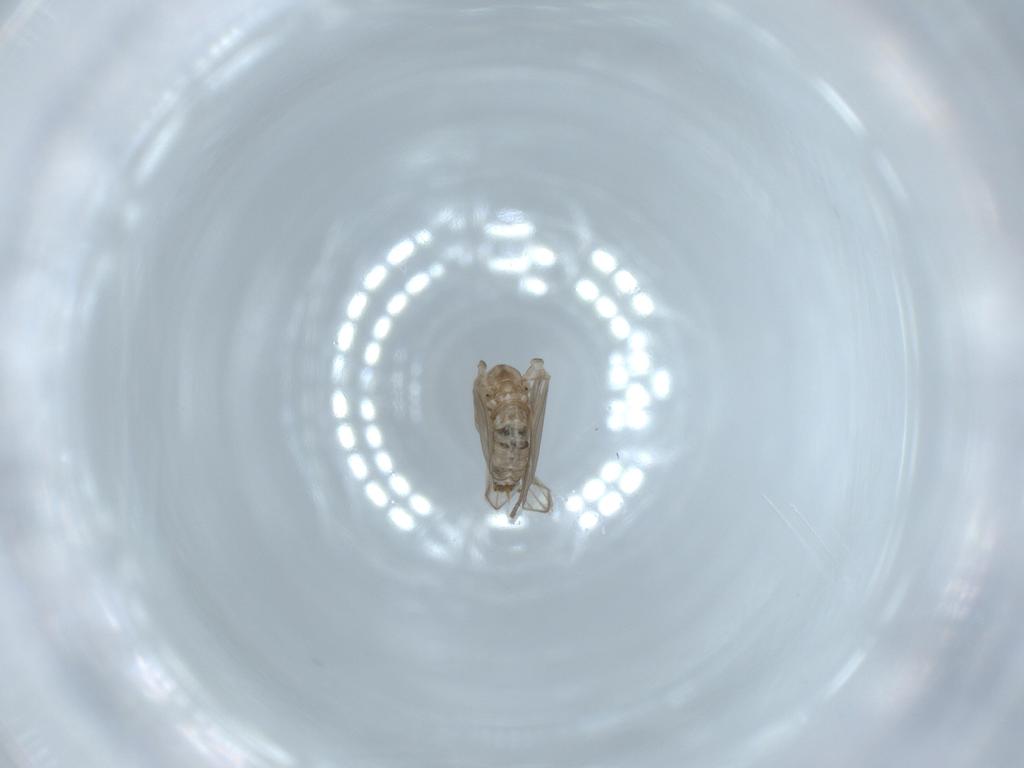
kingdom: Animalia
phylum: Arthropoda
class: Insecta
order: Diptera
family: Psychodidae
